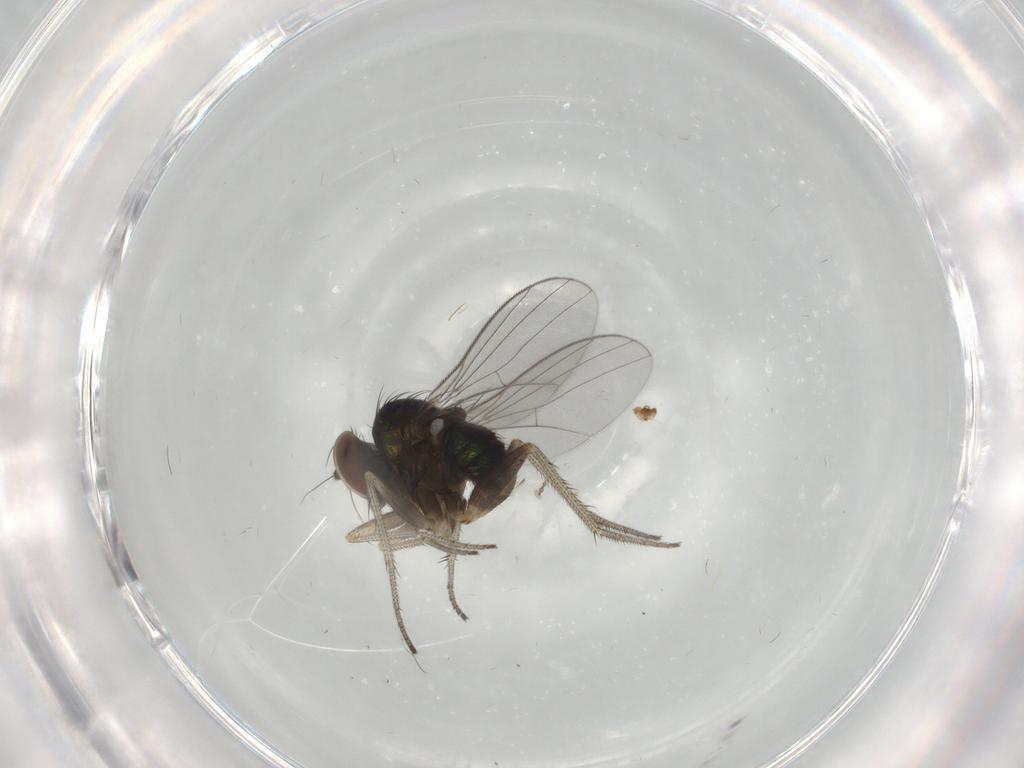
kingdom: Animalia
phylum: Arthropoda
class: Insecta
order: Diptera
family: Dolichopodidae
